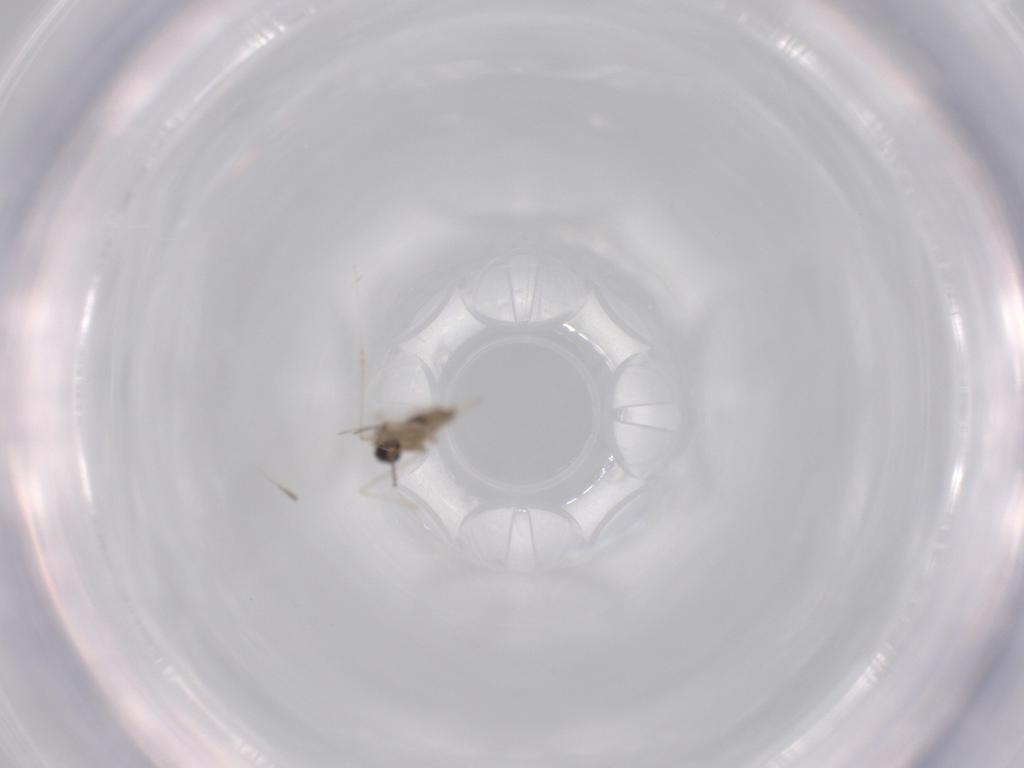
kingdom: Animalia
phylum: Arthropoda
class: Insecta
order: Diptera
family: Cecidomyiidae
